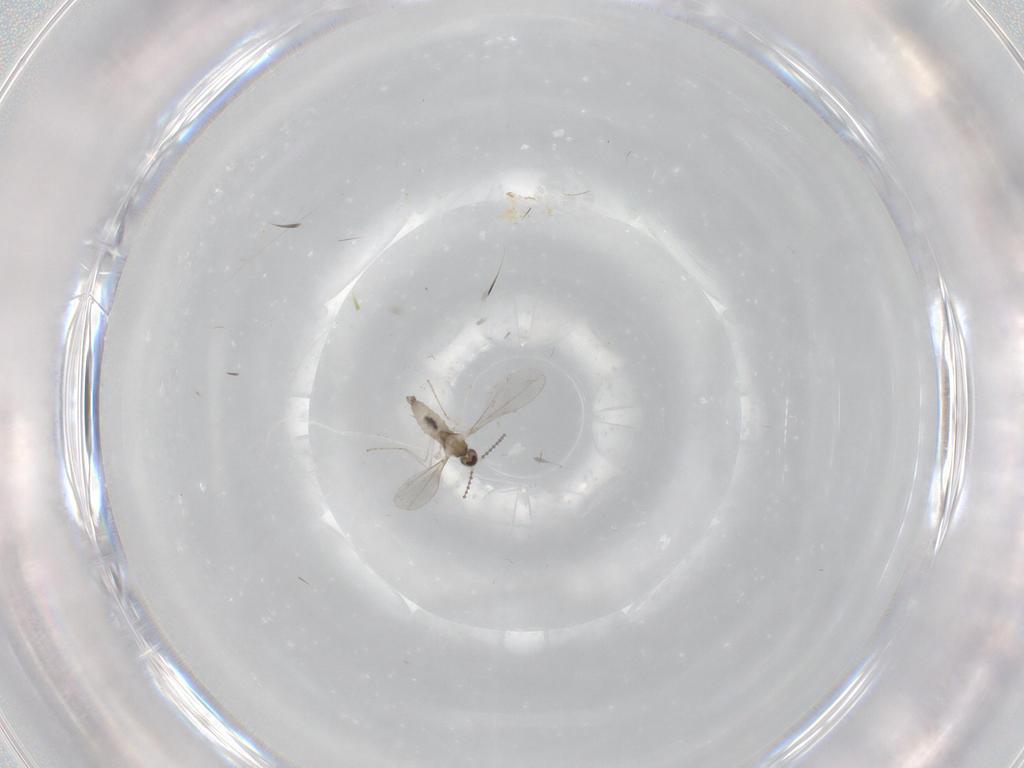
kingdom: Animalia
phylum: Arthropoda
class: Insecta
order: Diptera
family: Cecidomyiidae
